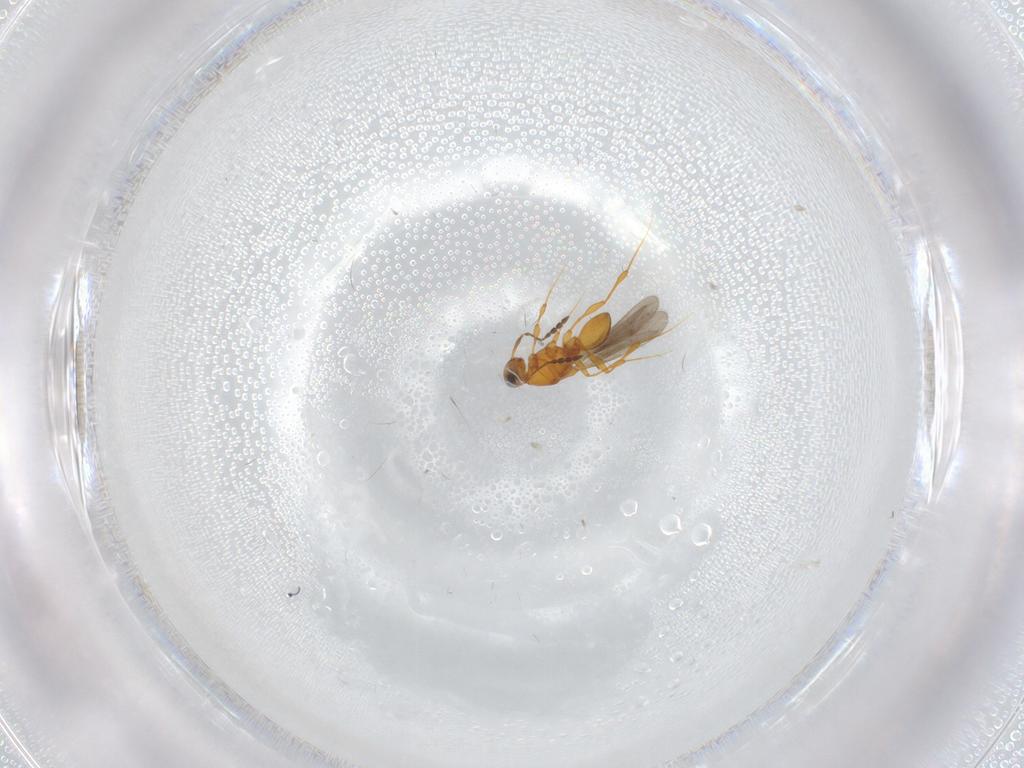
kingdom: Animalia
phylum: Arthropoda
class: Insecta
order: Hymenoptera
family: Platygastridae
